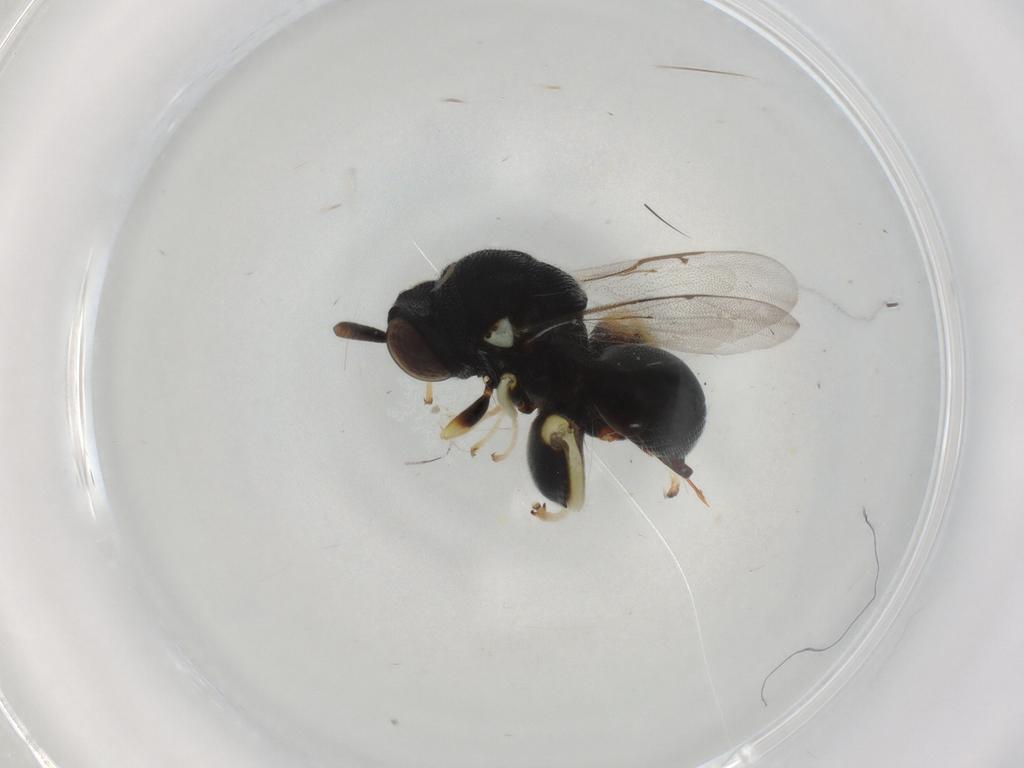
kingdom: Animalia
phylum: Arthropoda
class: Insecta
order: Hymenoptera
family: Chalcididae
